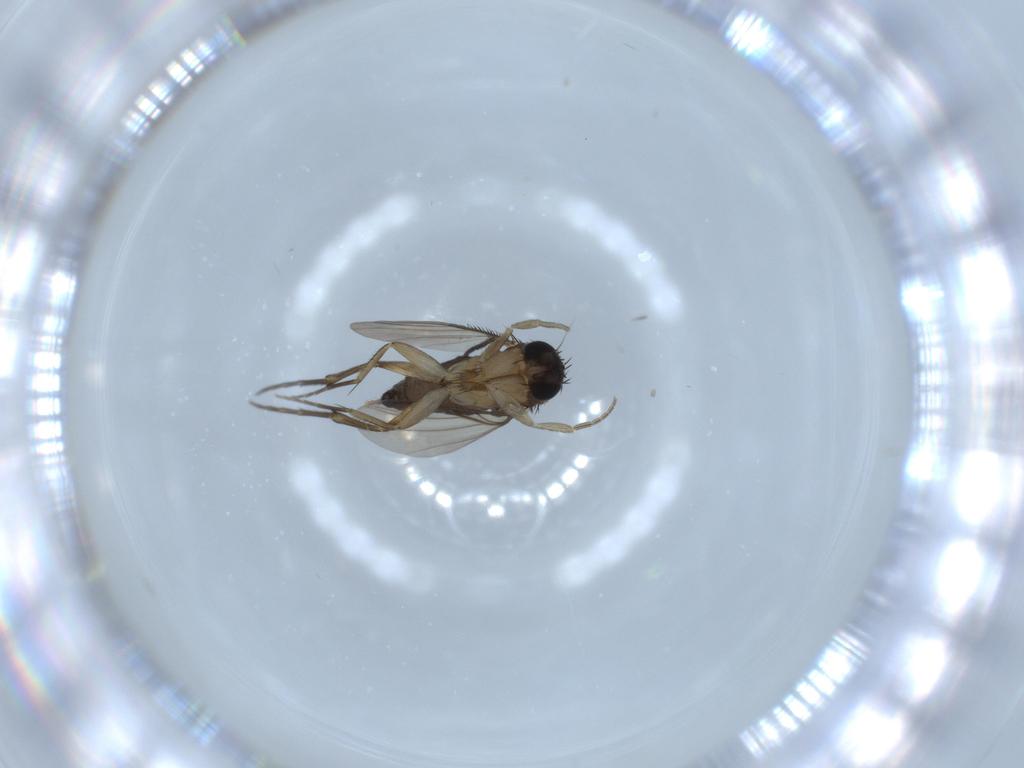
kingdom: Animalia
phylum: Arthropoda
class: Insecta
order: Diptera
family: Phoridae
